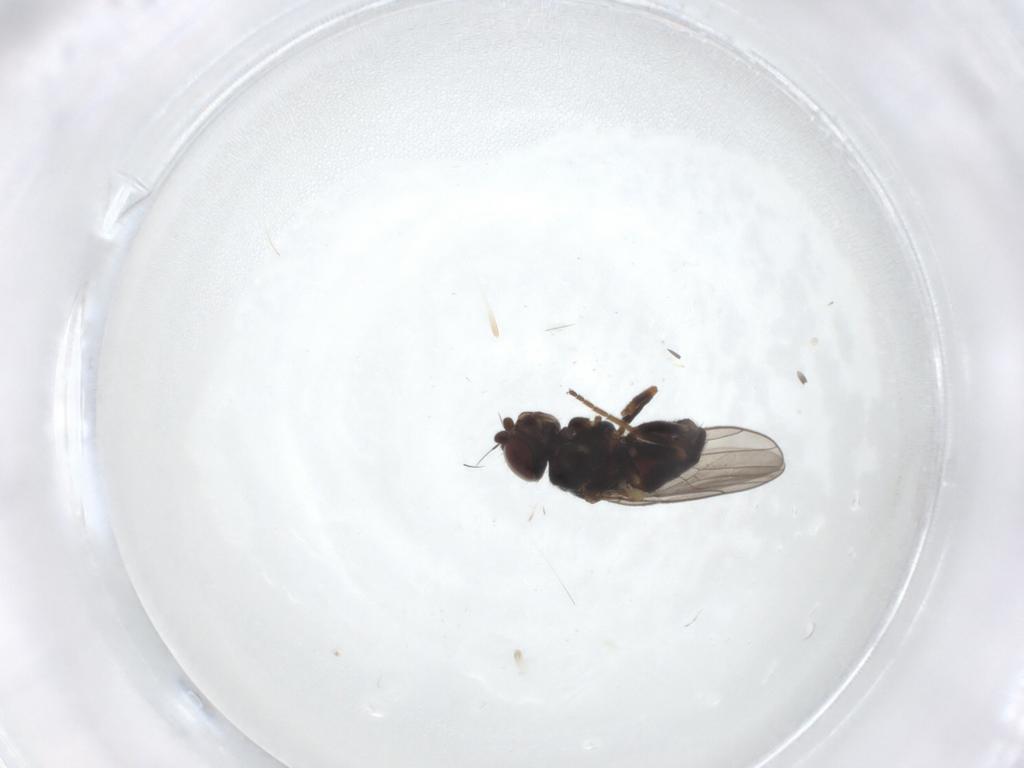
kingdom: Animalia
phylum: Arthropoda
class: Insecta
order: Diptera
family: Chloropidae
